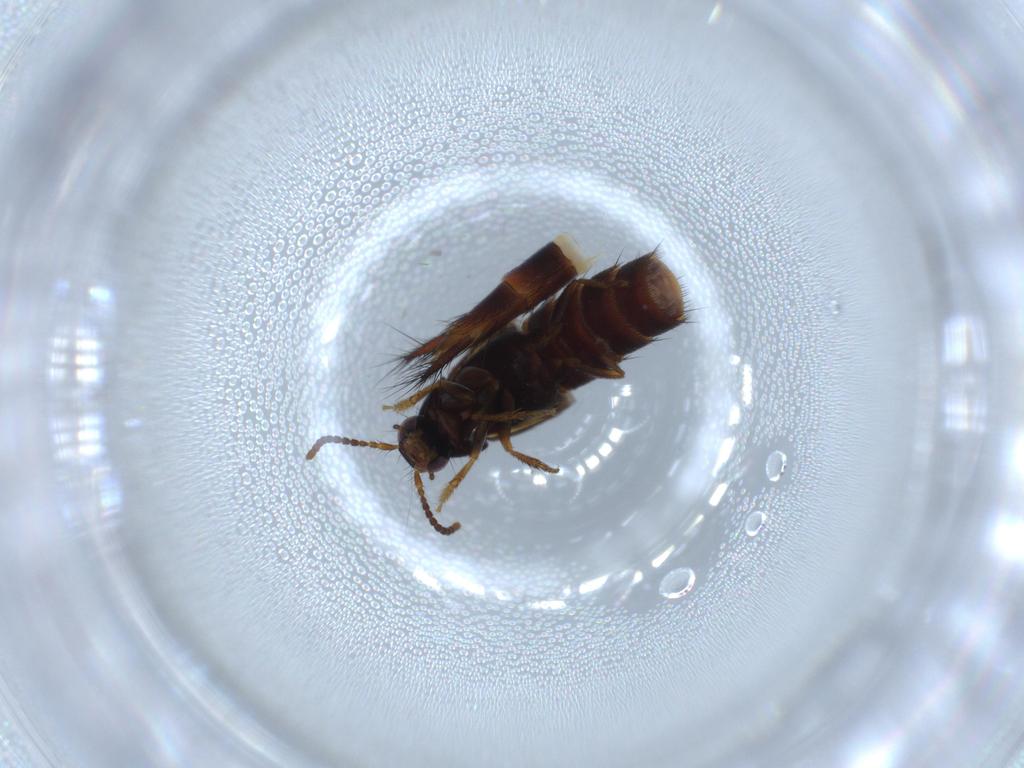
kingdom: Animalia
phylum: Arthropoda
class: Insecta
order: Coleoptera
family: Staphylinidae
